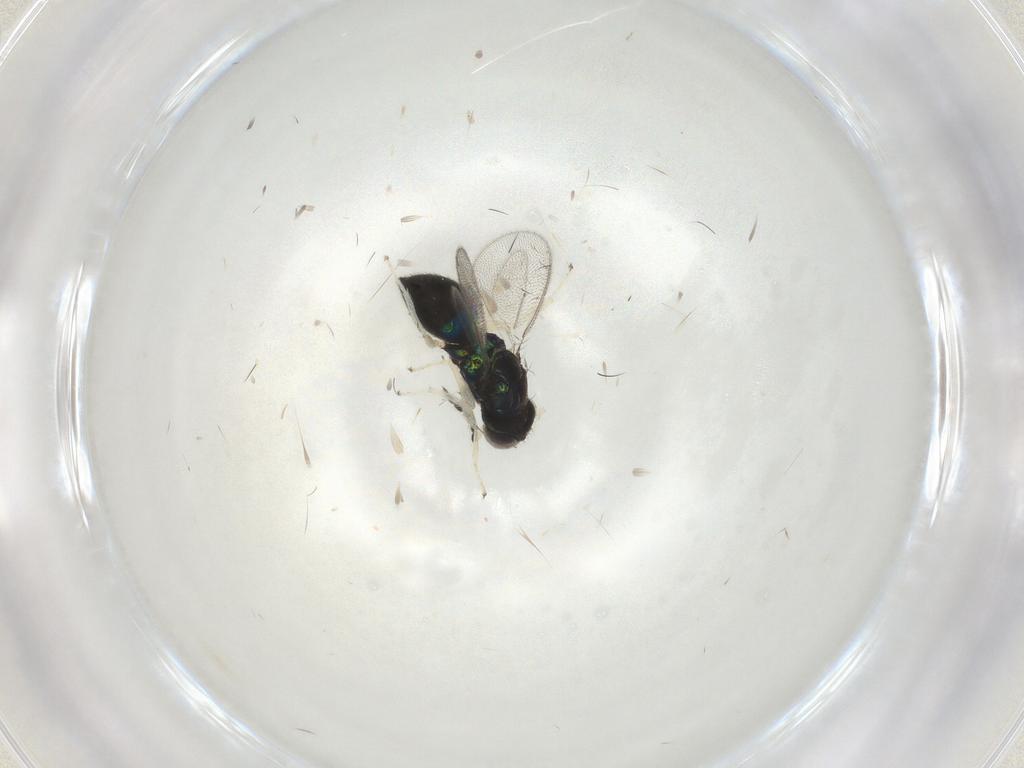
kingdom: Animalia
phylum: Arthropoda
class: Insecta
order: Hymenoptera
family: Eulophidae
